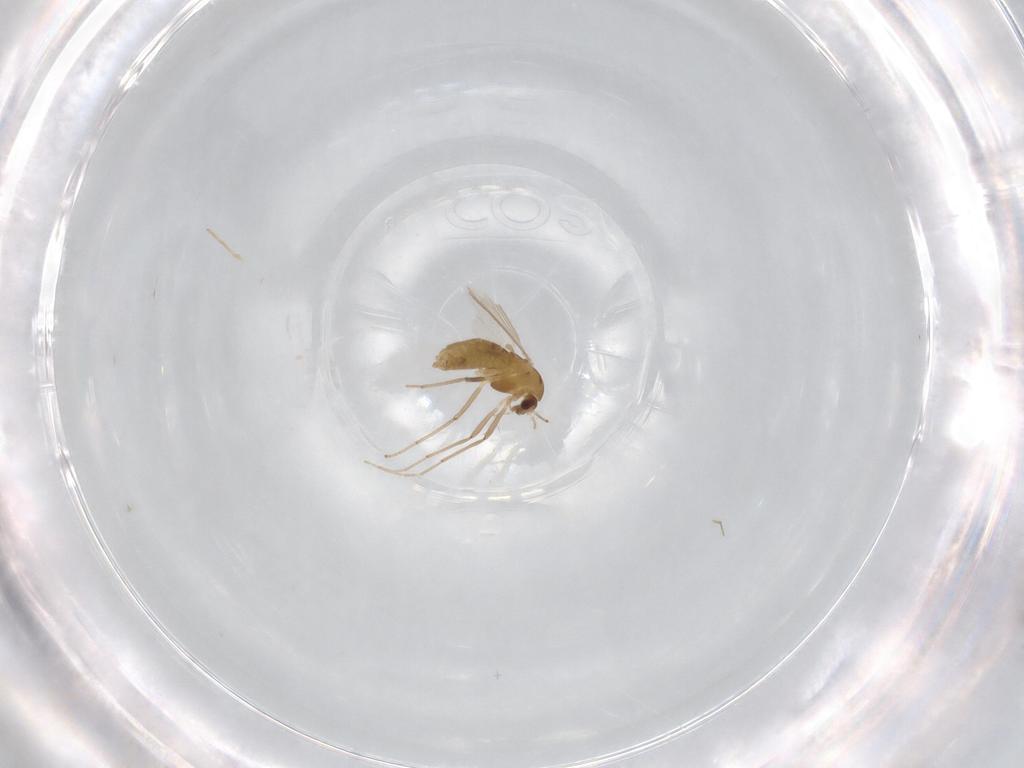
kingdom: Animalia
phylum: Arthropoda
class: Insecta
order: Diptera
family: Chironomidae
